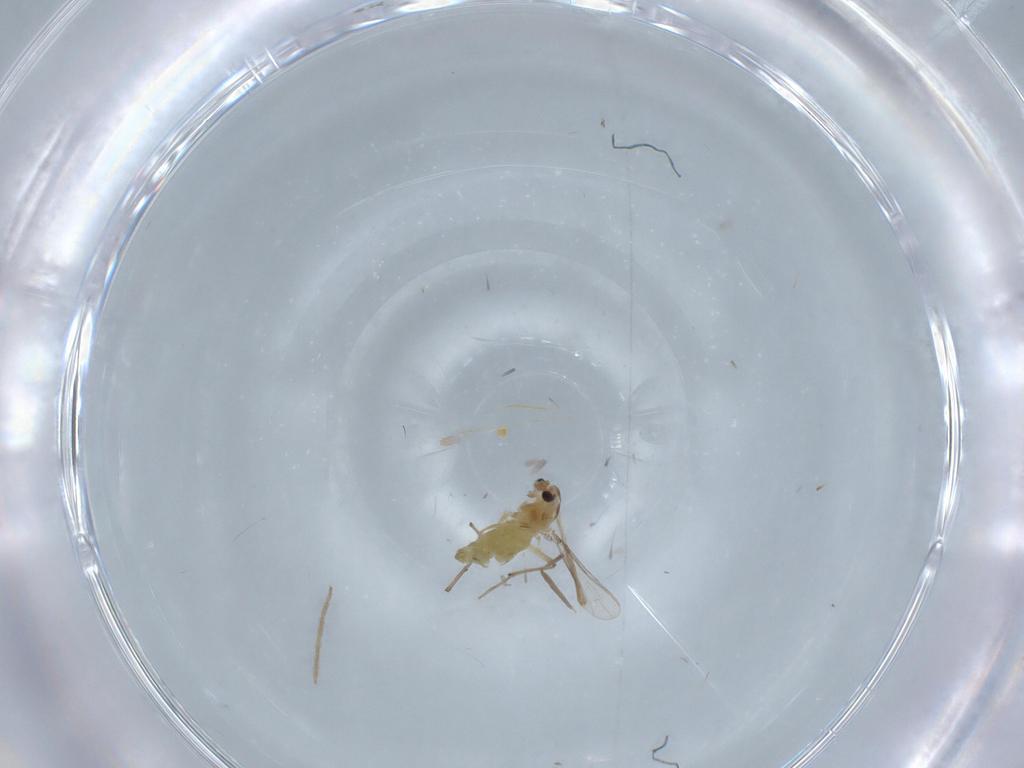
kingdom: Animalia
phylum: Arthropoda
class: Insecta
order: Diptera
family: Chironomidae
